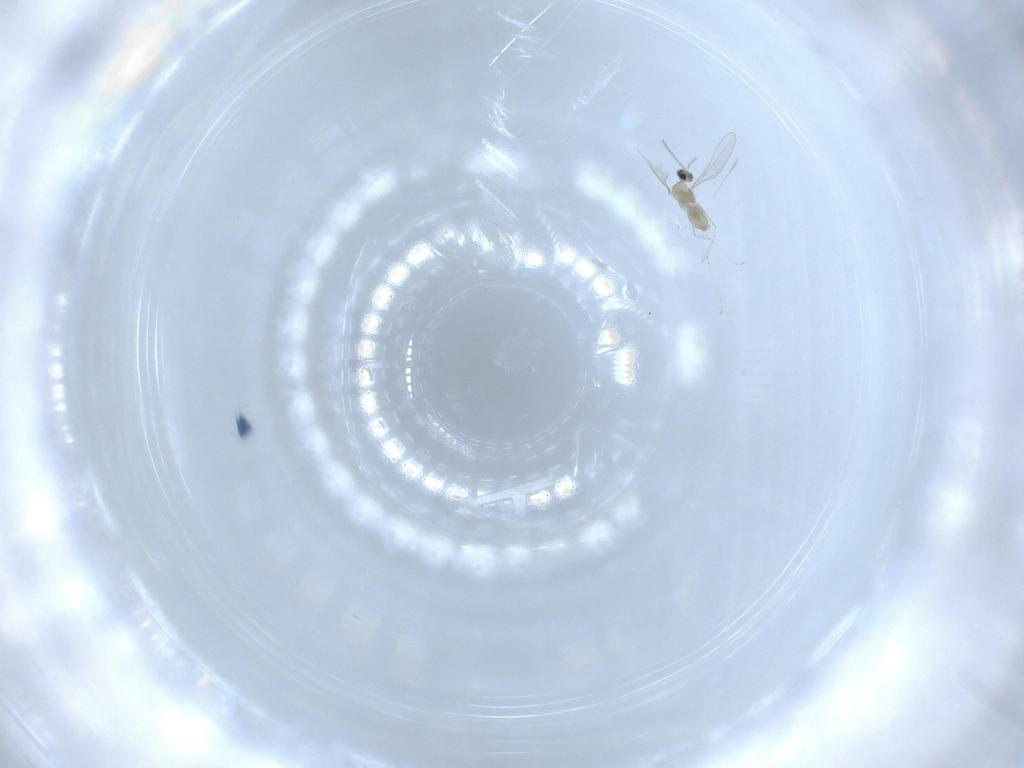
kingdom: Animalia
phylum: Arthropoda
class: Insecta
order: Diptera
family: Cecidomyiidae
